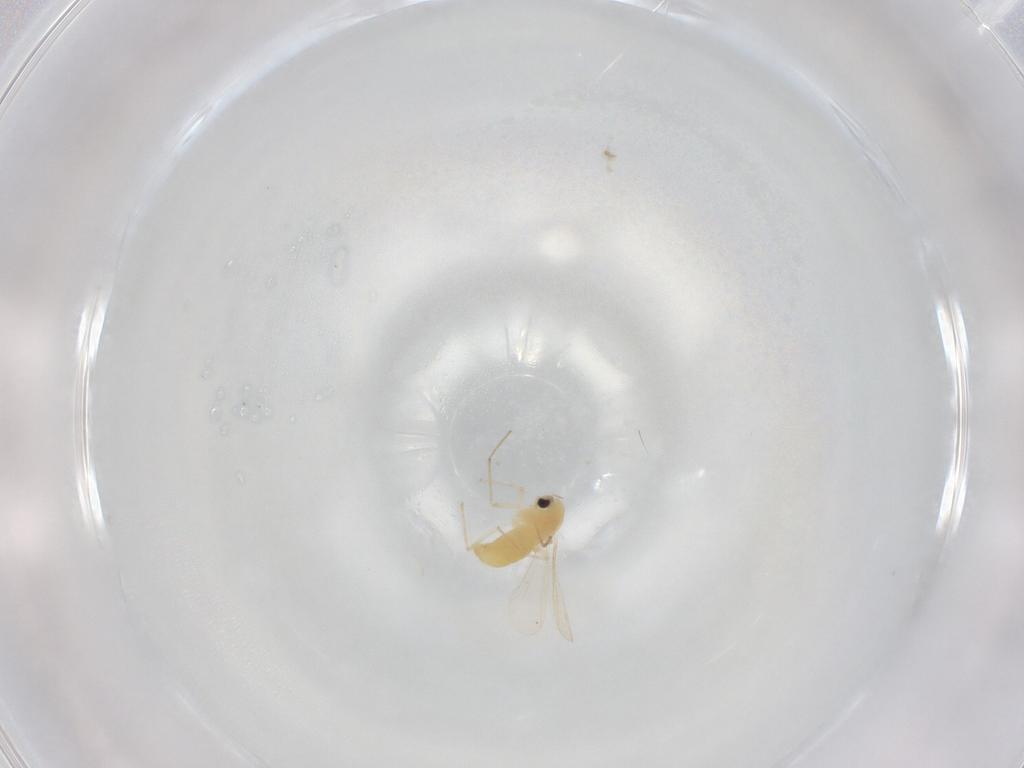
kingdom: Animalia
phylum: Arthropoda
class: Insecta
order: Diptera
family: Chironomidae
